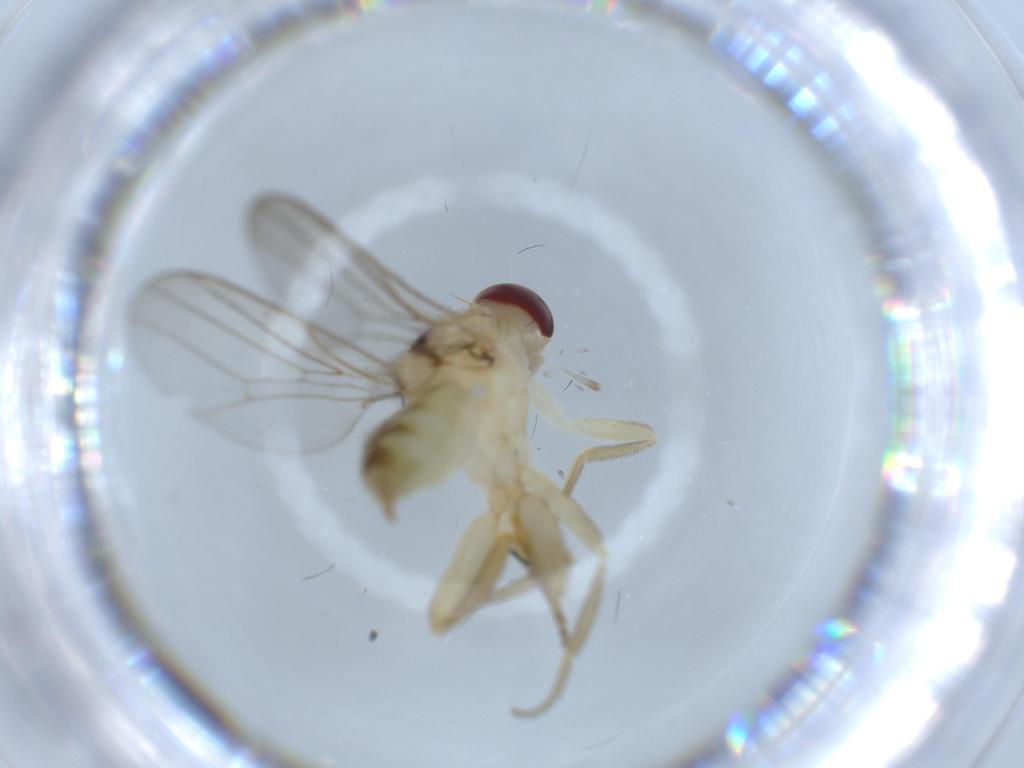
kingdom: Animalia
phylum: Arthropoda
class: Insecta
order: Diptera
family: Chloropidae
